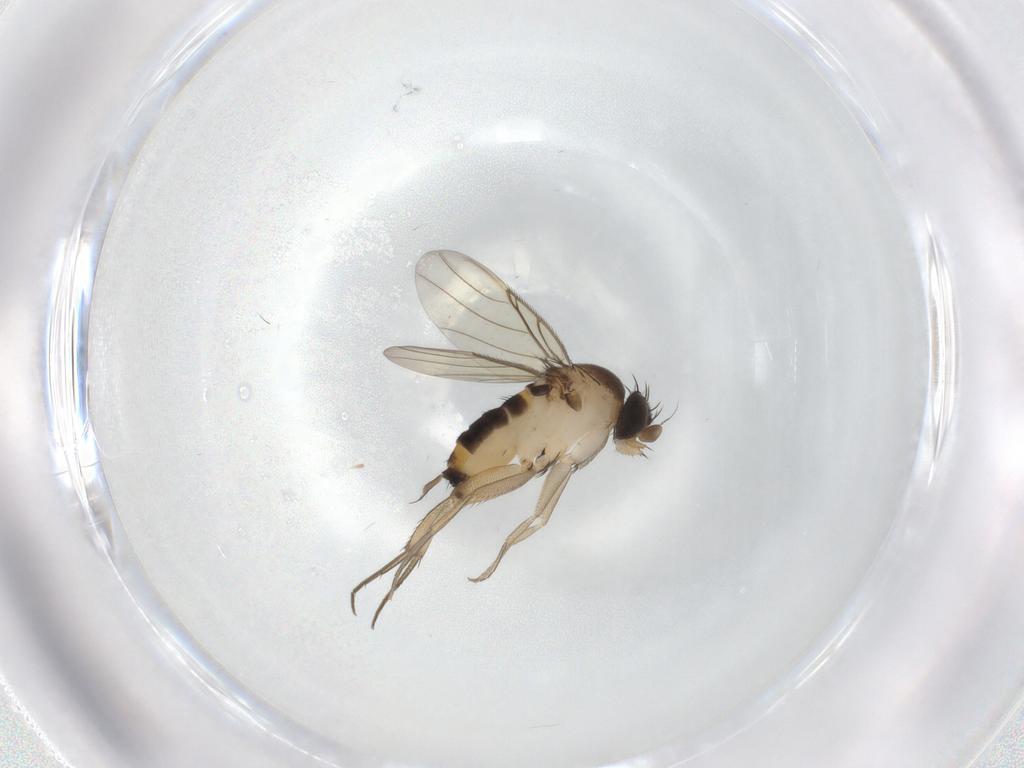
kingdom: Animalia
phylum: Arthropoda
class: Insecta
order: Diptera
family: Phoridae
